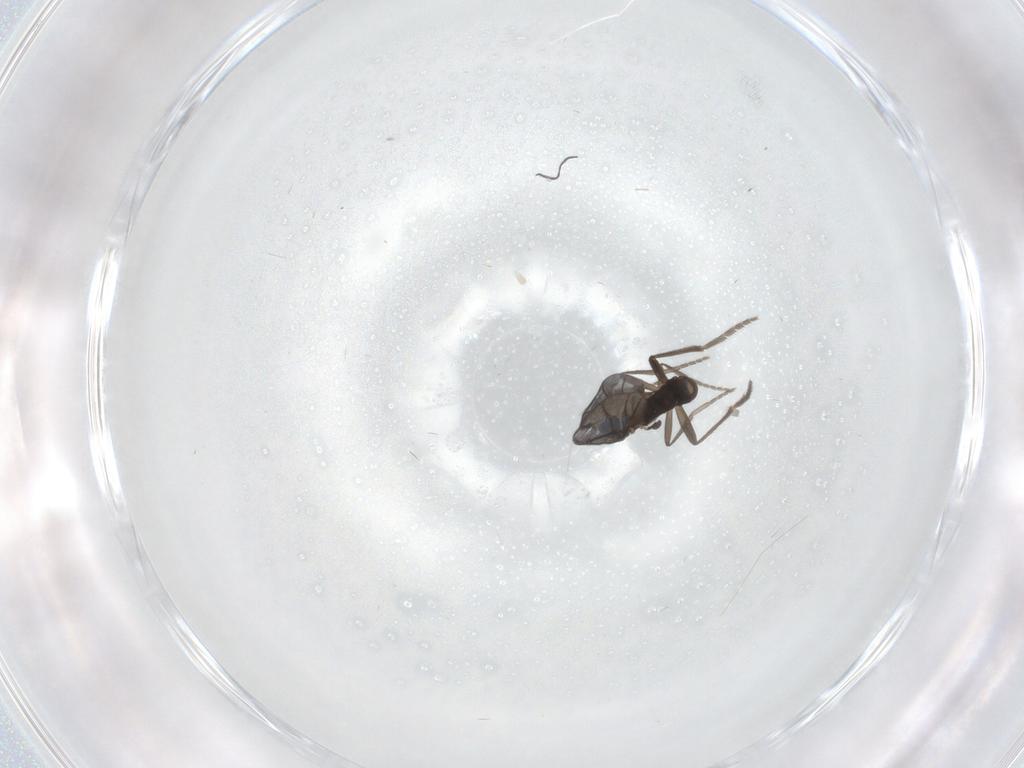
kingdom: Animalia
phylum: Arthropoda
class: Insecta
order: Diptera
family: Phoridae
